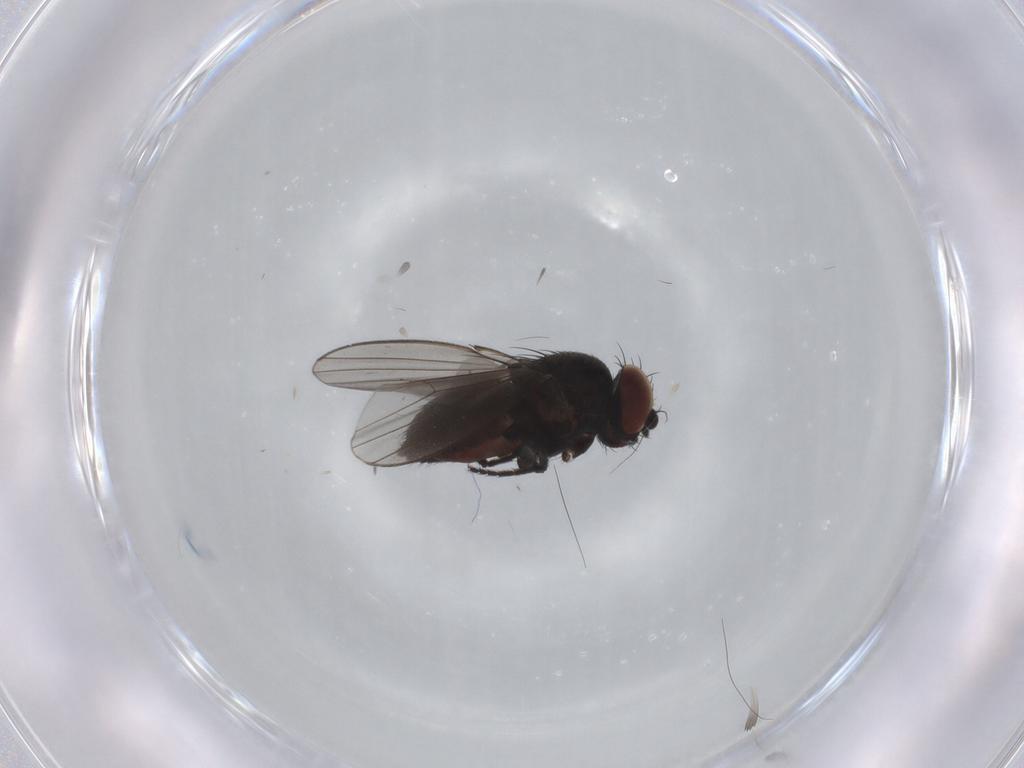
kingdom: Animalia
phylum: Arthropoda
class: Insecta
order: Diptera
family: Milichiidae
